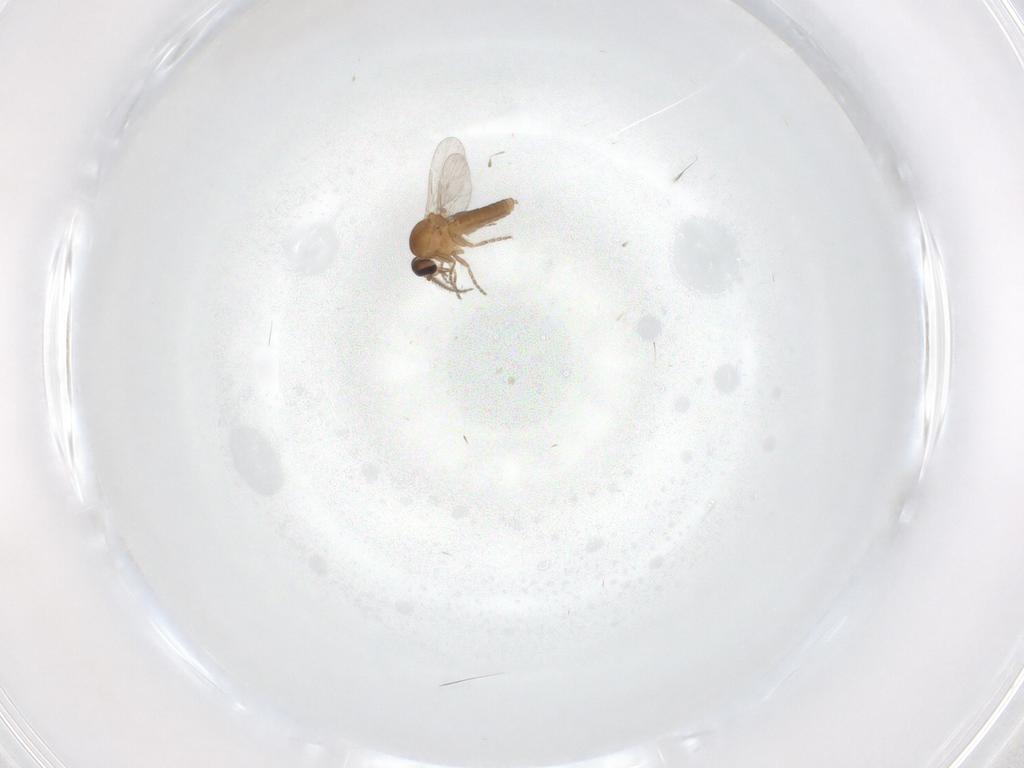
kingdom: Animalia
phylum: Arthropoda
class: Insecta
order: Diptera
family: Ceratopogonidae
